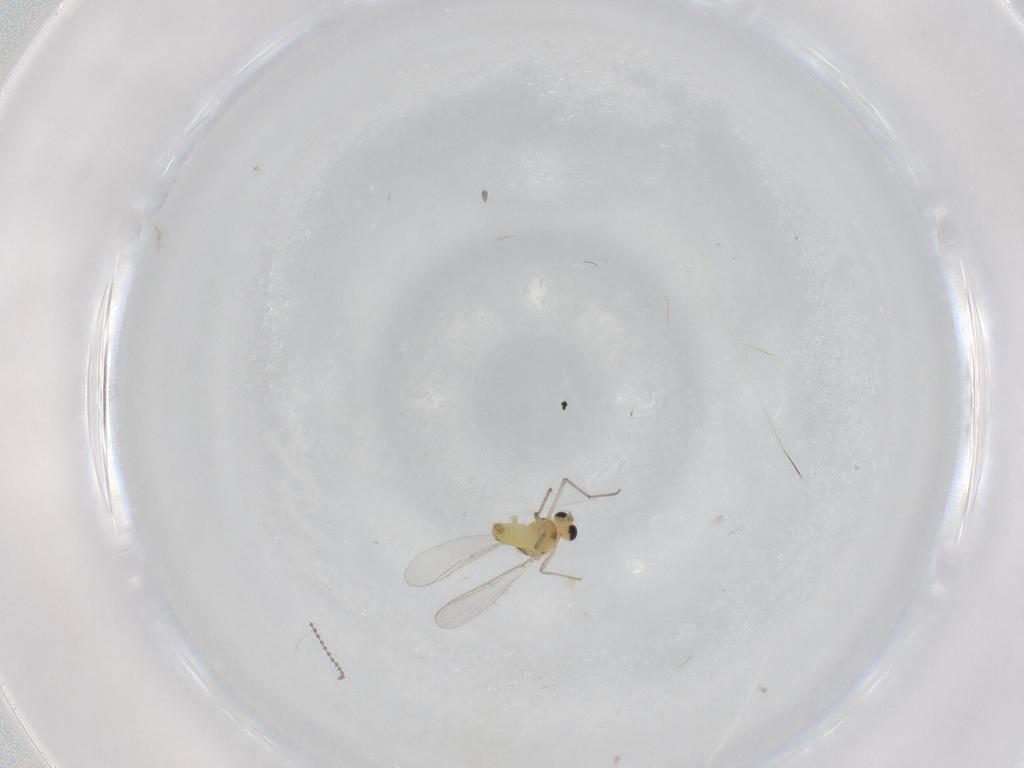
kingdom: Animalia
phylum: Arthropoda
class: Insecta
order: Diptera
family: Chironomidae
